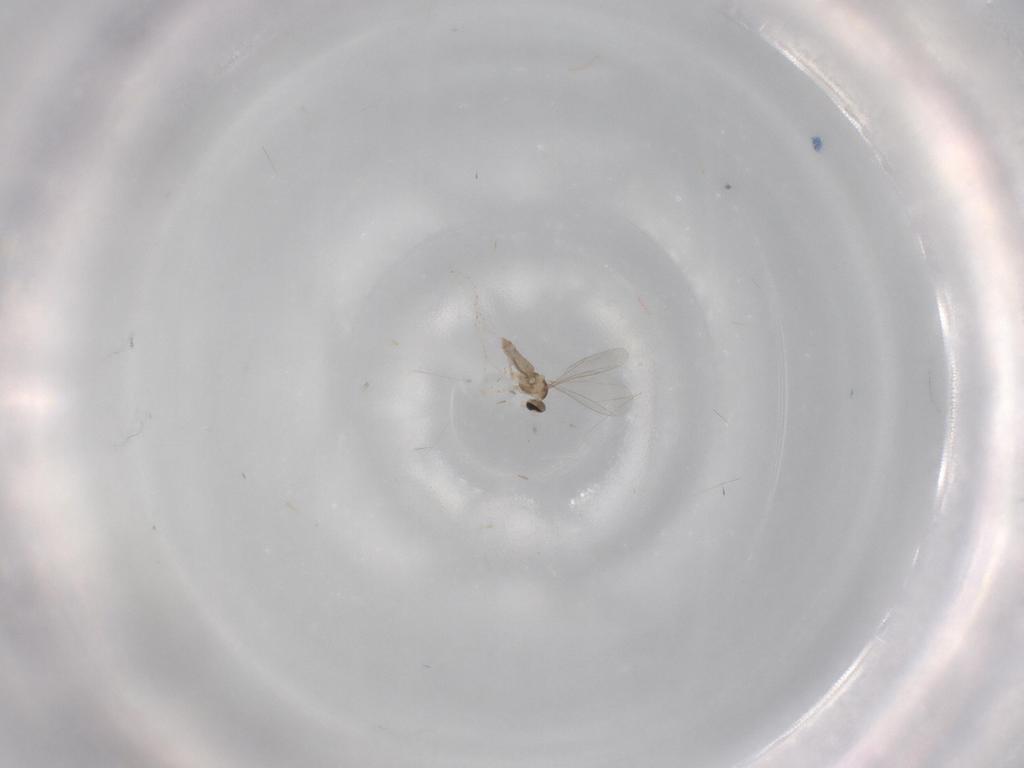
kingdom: Animalia
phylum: Arthropoda
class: Insecta
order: Diptera
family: Cecidomyiidae
